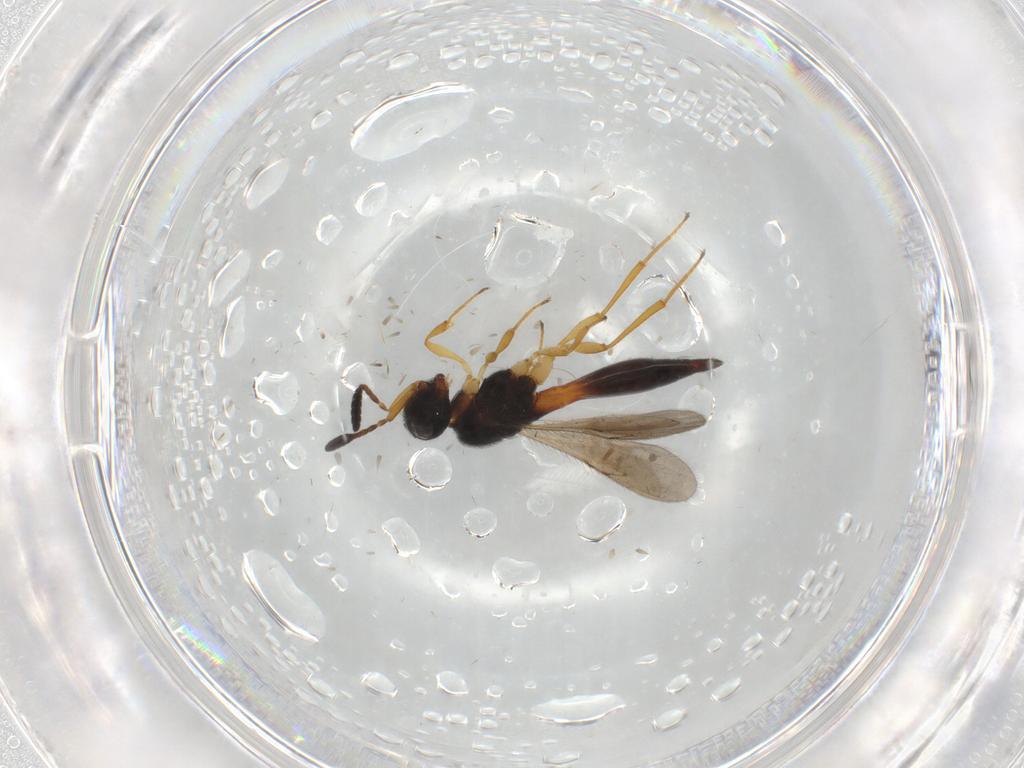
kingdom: Animalia
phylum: Arthropoda
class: Insecta
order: Hymenoptera
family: Scelionidae
